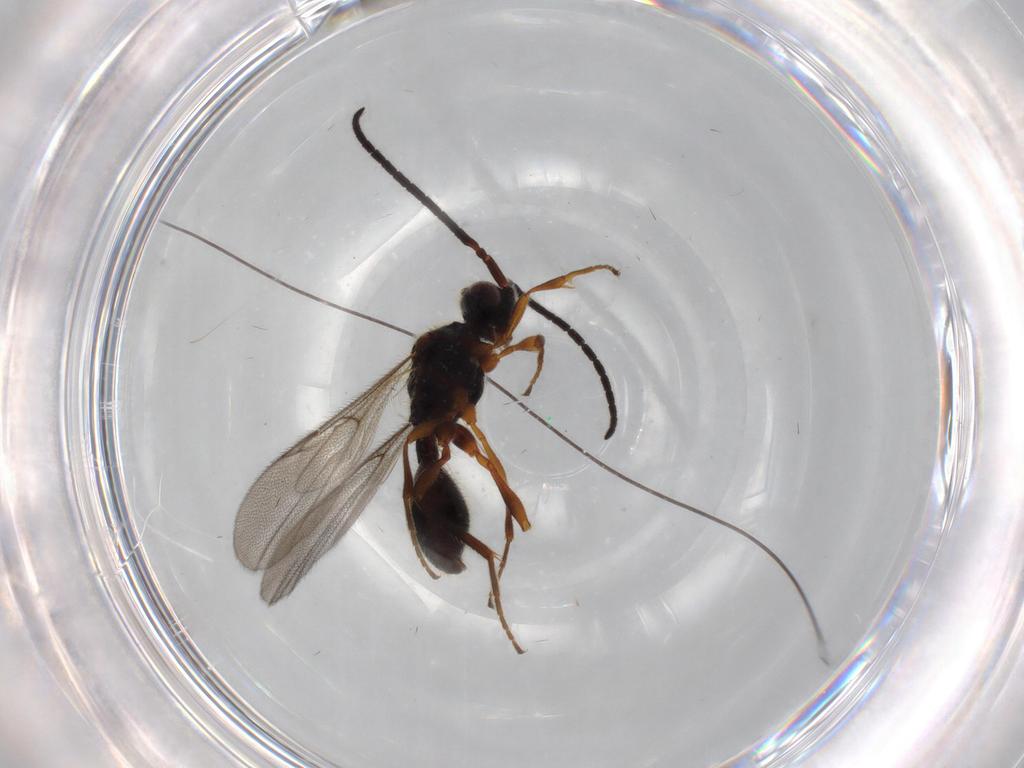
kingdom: Animalia
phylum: Arthropoda
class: Insecta
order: Hymenoptera
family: Diapriidae
